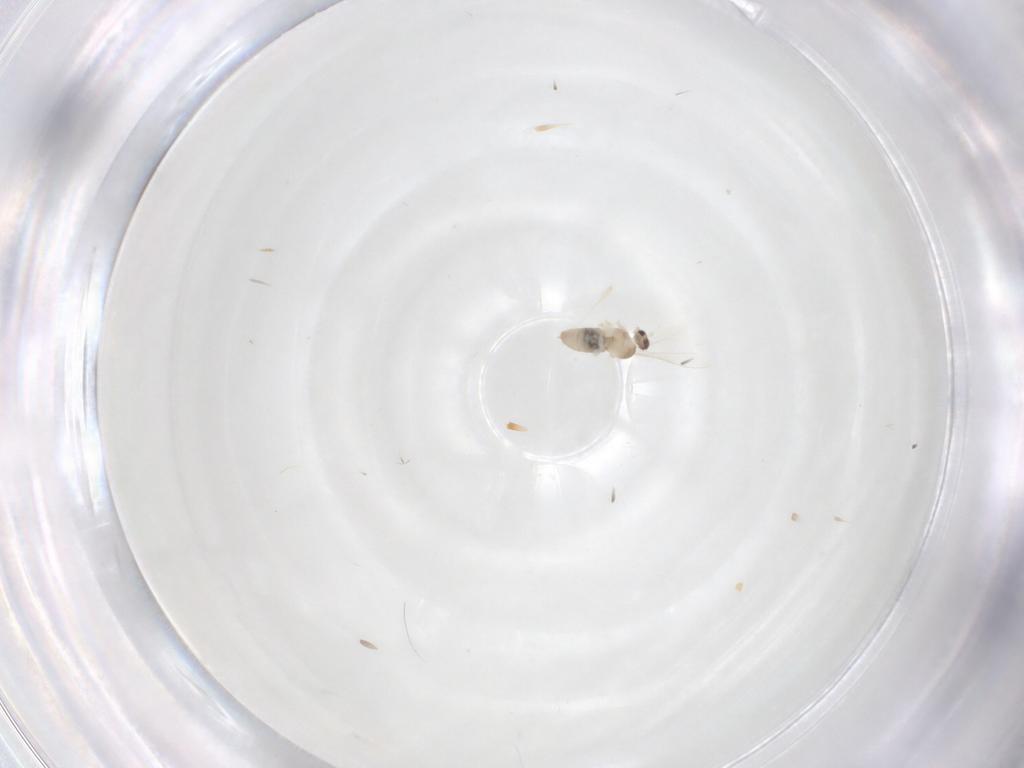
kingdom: Animalia
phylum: Arthropoda
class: Insecta
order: Diptera
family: Cecidomyiidae
